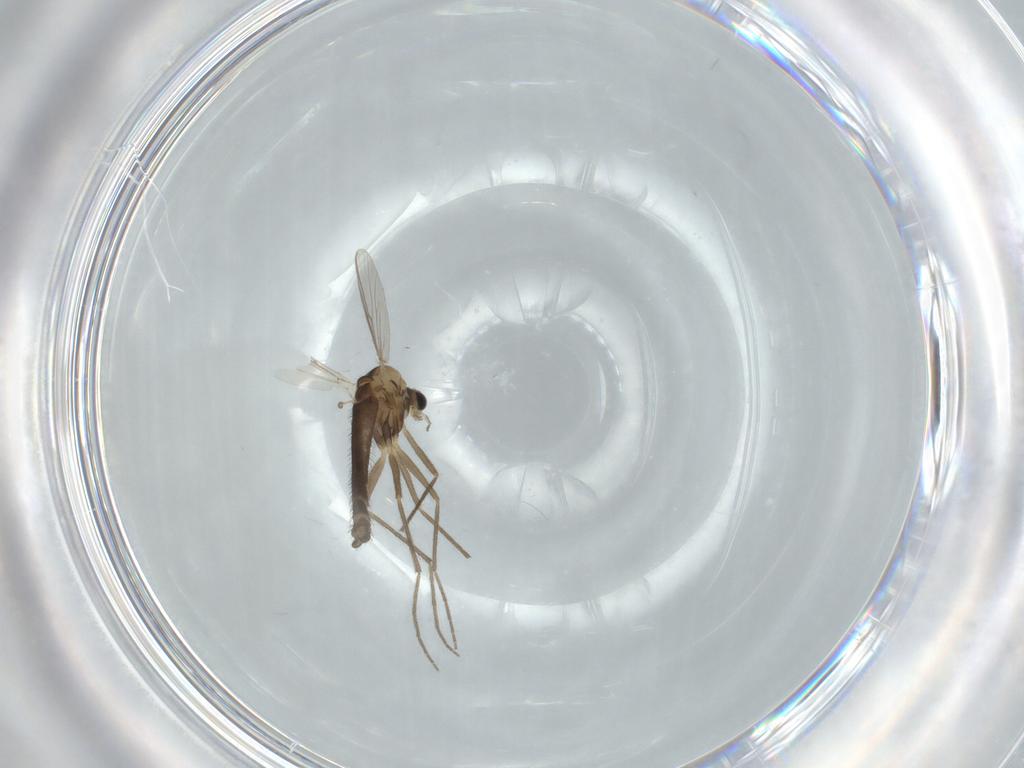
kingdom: Animalia
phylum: Arthropoda
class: Insecta
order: Diptera
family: Chironomidae
